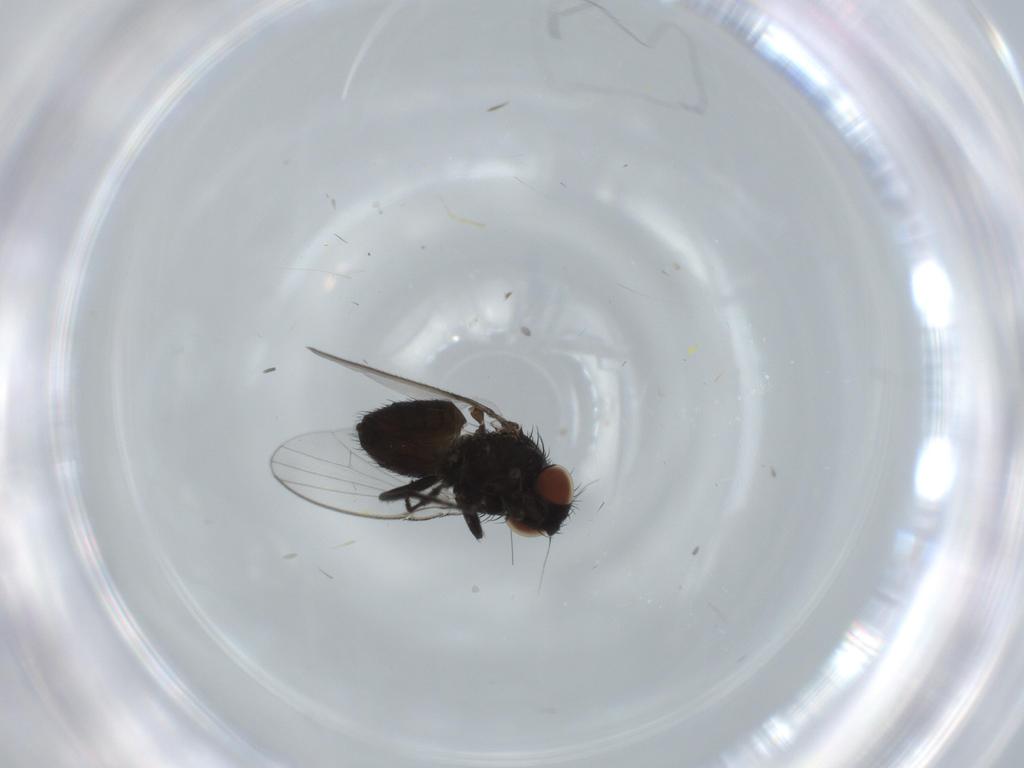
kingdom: Animalia
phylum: Arthropoda
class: Insecta
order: Diptera
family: Milichiidae
